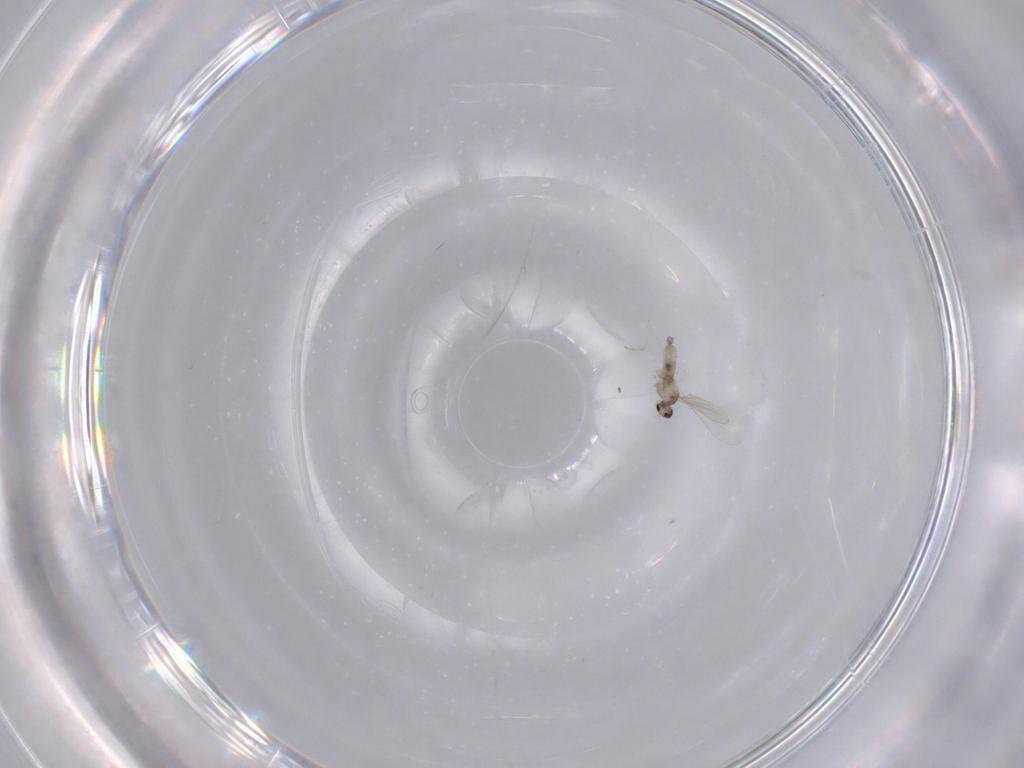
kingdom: Animalia
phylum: Arthropoda
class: Insecta
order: Diptera
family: Cecidomyiidae
